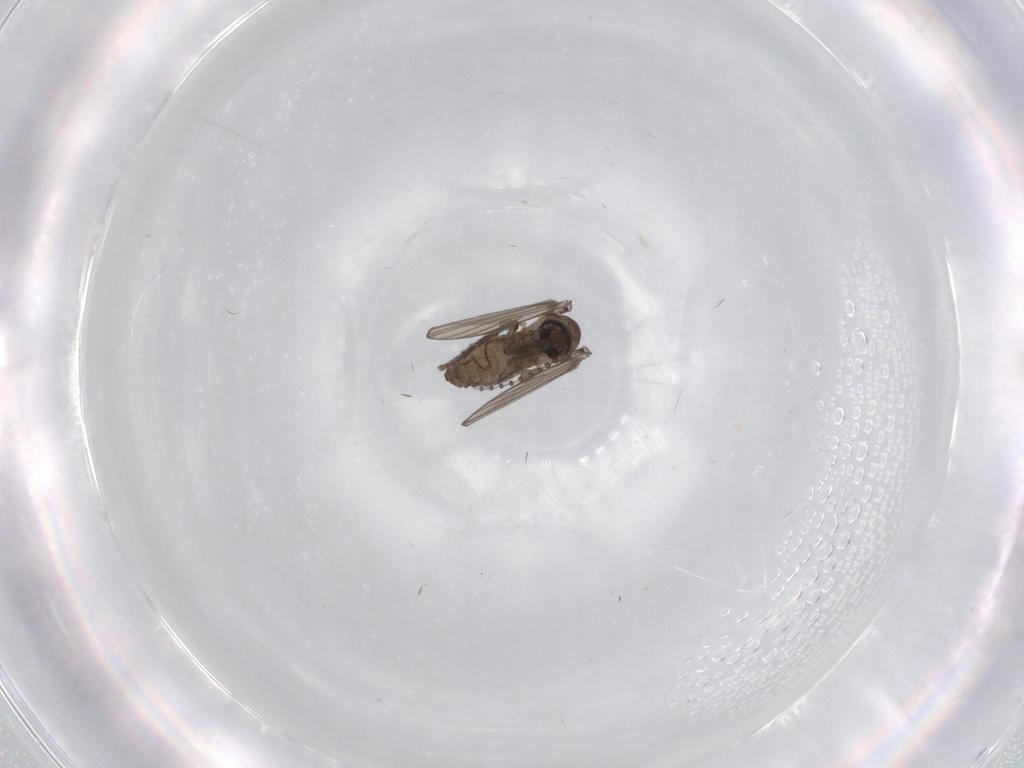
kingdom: Animalia
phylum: Arthropoda
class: Insecta
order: Diptera
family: Psychodidae
